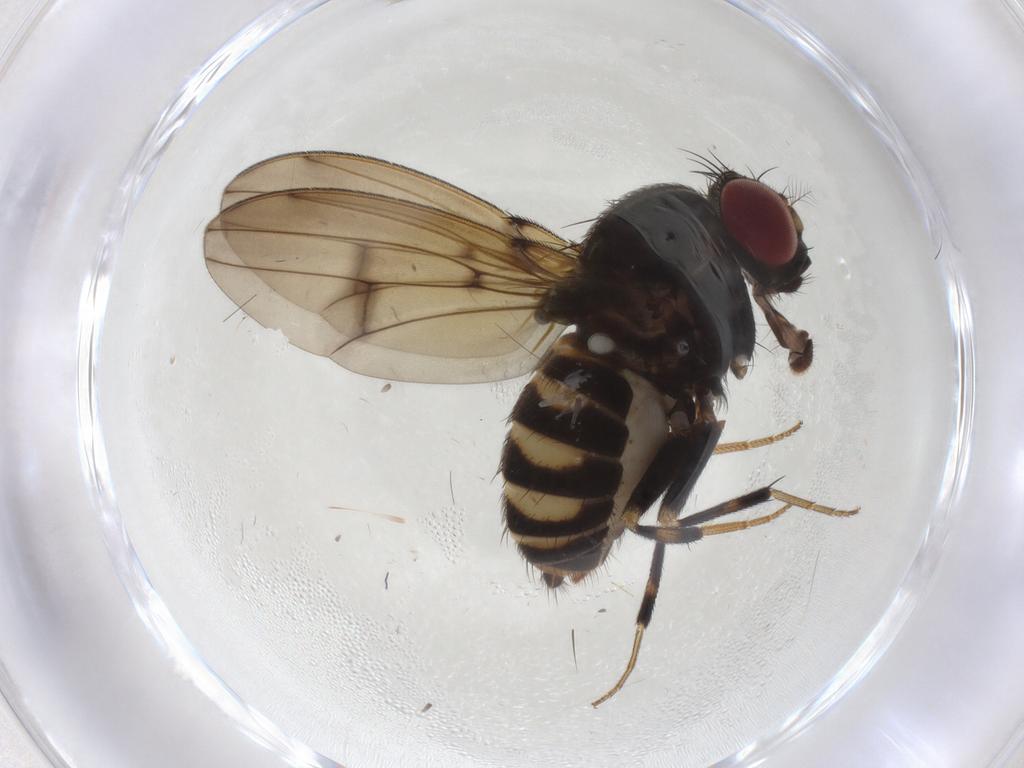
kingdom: Animalia
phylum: Arthropoda
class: Insecta
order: Diptera
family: Drosophilidae
